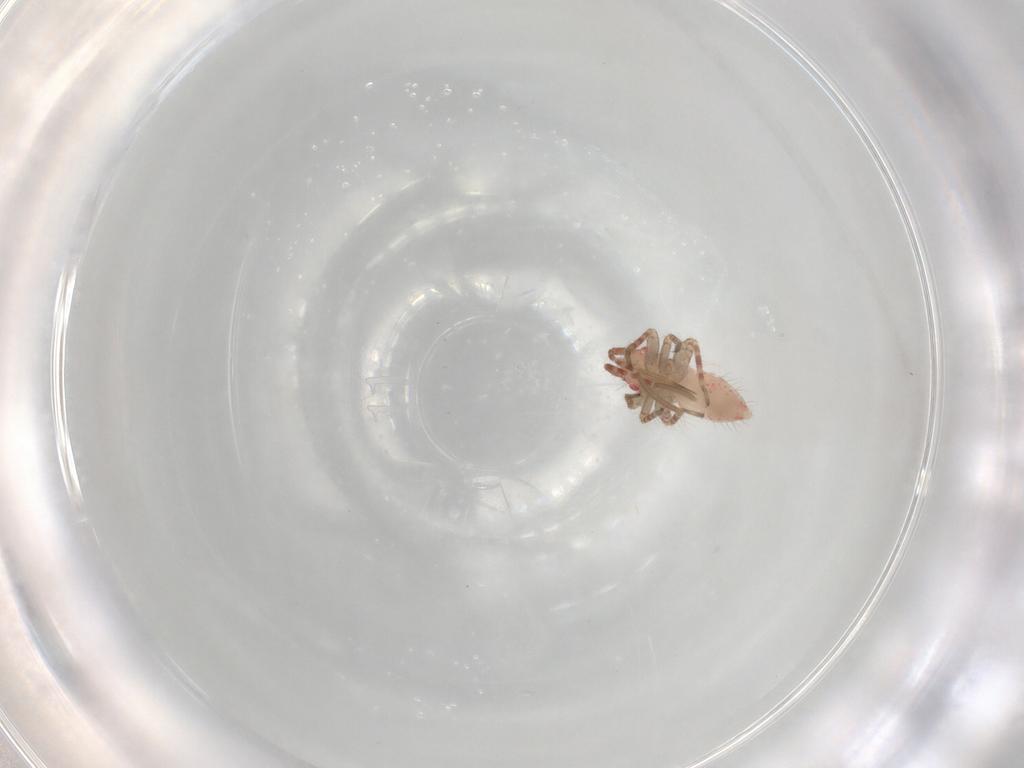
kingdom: Animalia
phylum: Arthropoda
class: Insecta
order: Hemiptera
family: Miridae
